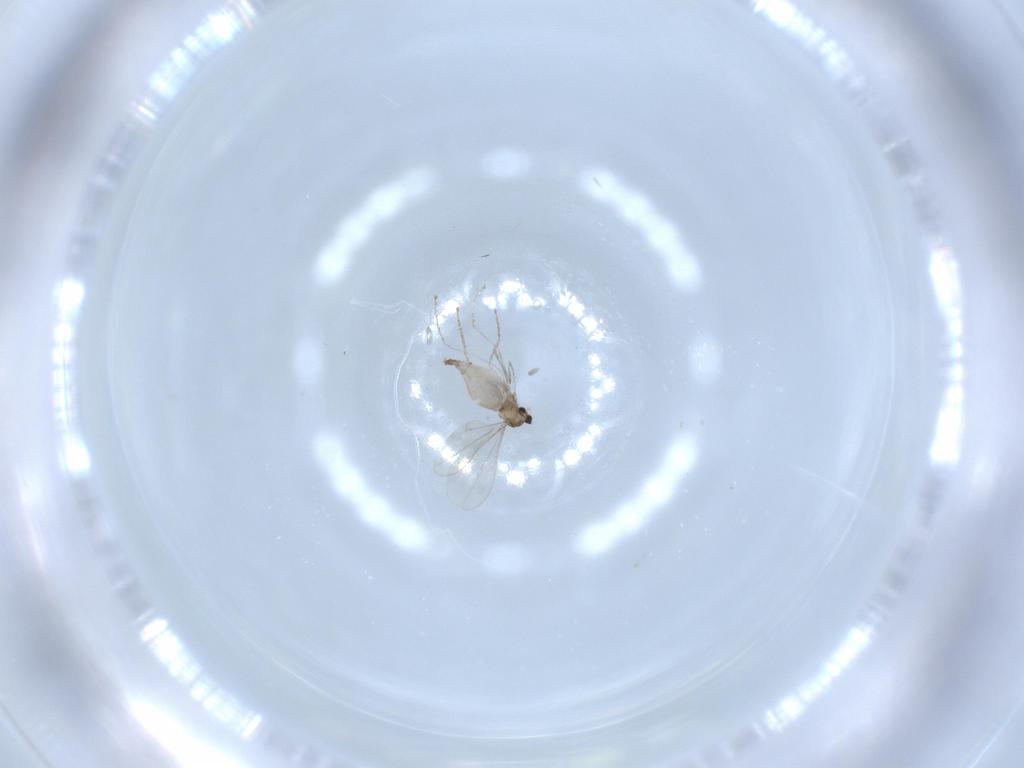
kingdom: Animalia
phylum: Arthropoda
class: Insecta
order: Diptera
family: Cecidomyiidae
